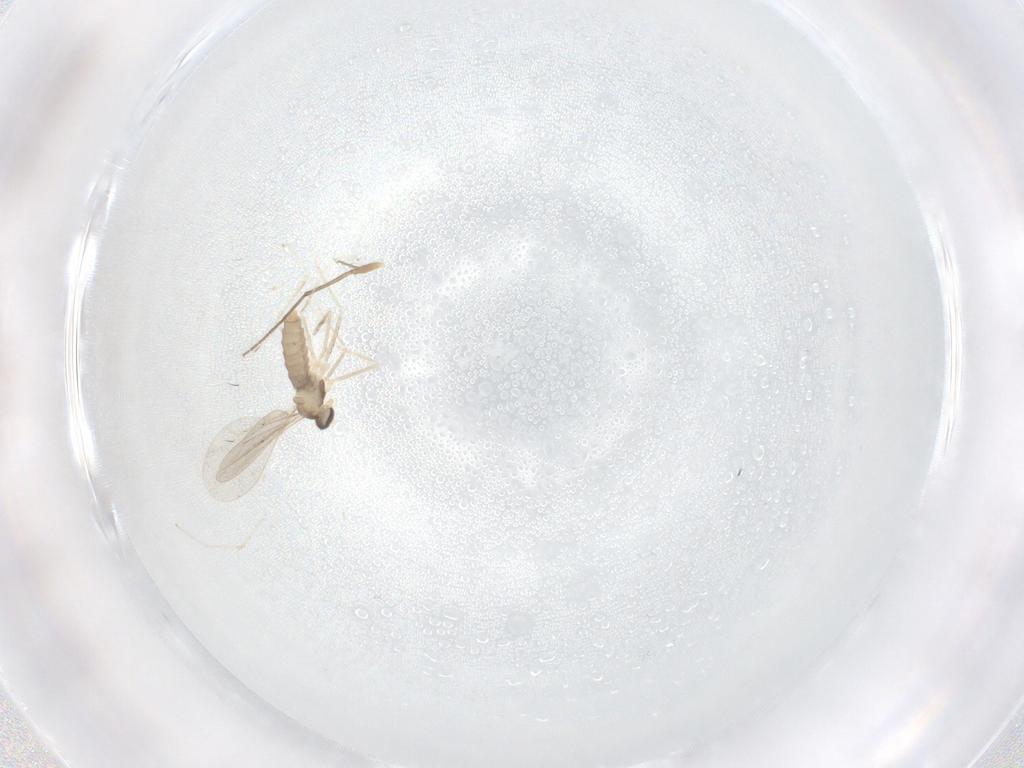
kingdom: Animalia
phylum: Arthropoda
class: Insecta
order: Diptera
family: Chironomidae
